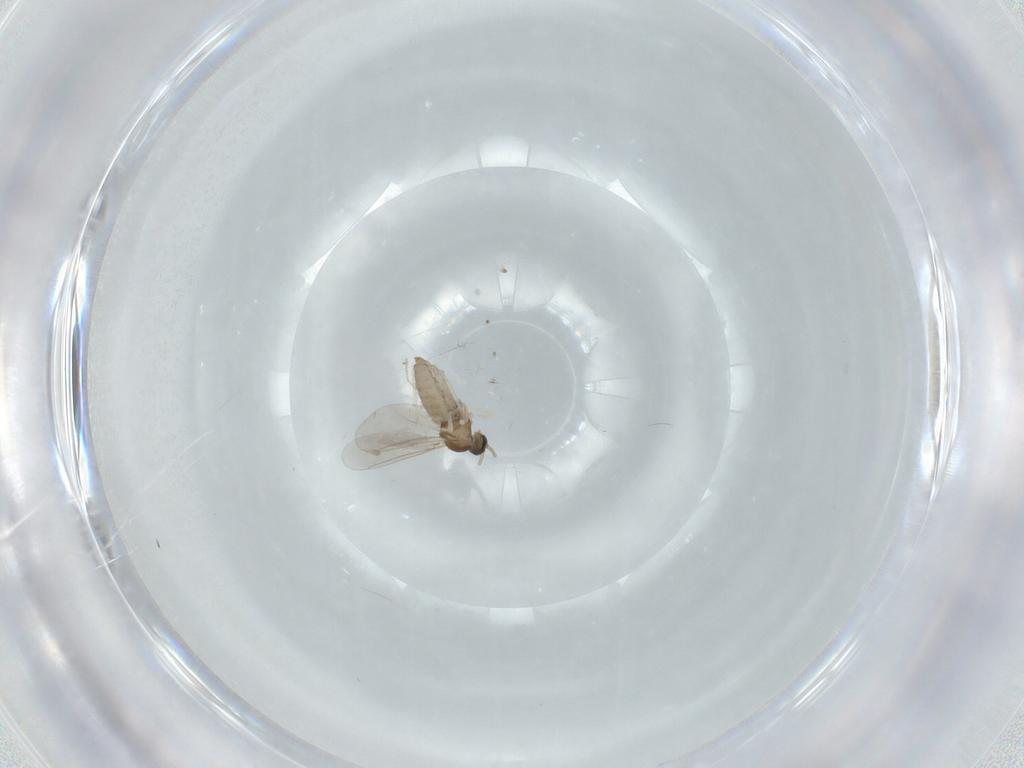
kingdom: Animalia
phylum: Arthropoda
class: Insecta
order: Diptera
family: Cecidomyiidae
